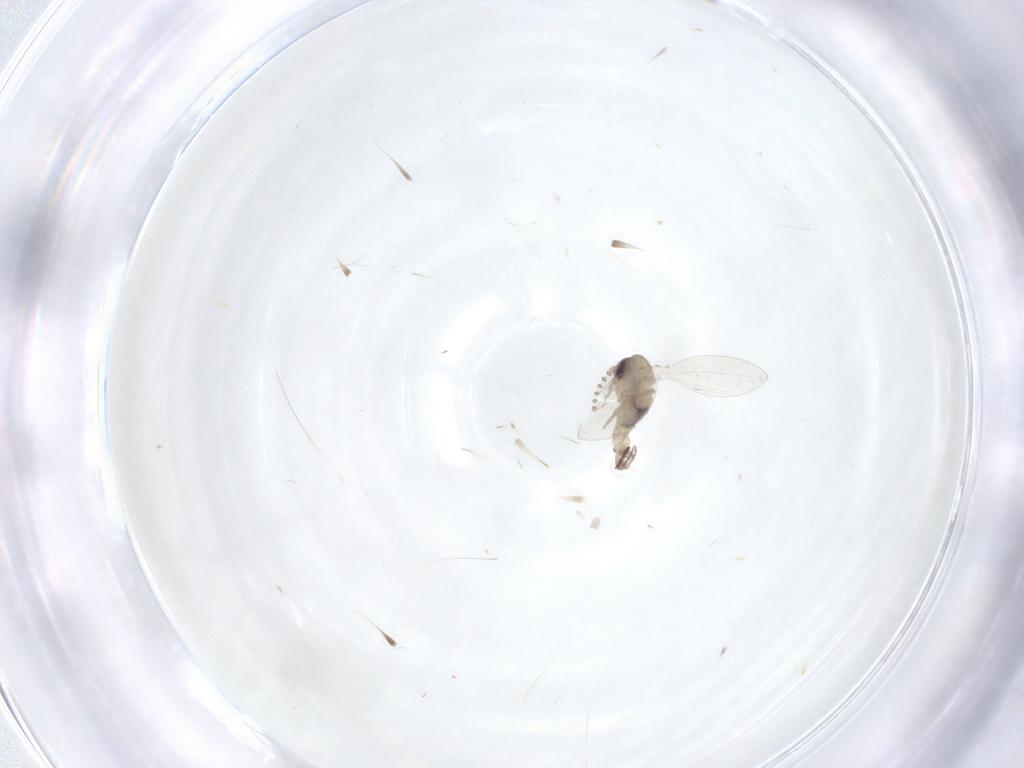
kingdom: Animalia
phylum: Arthropoda
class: Insecta
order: Diptera
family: Psychodidae
